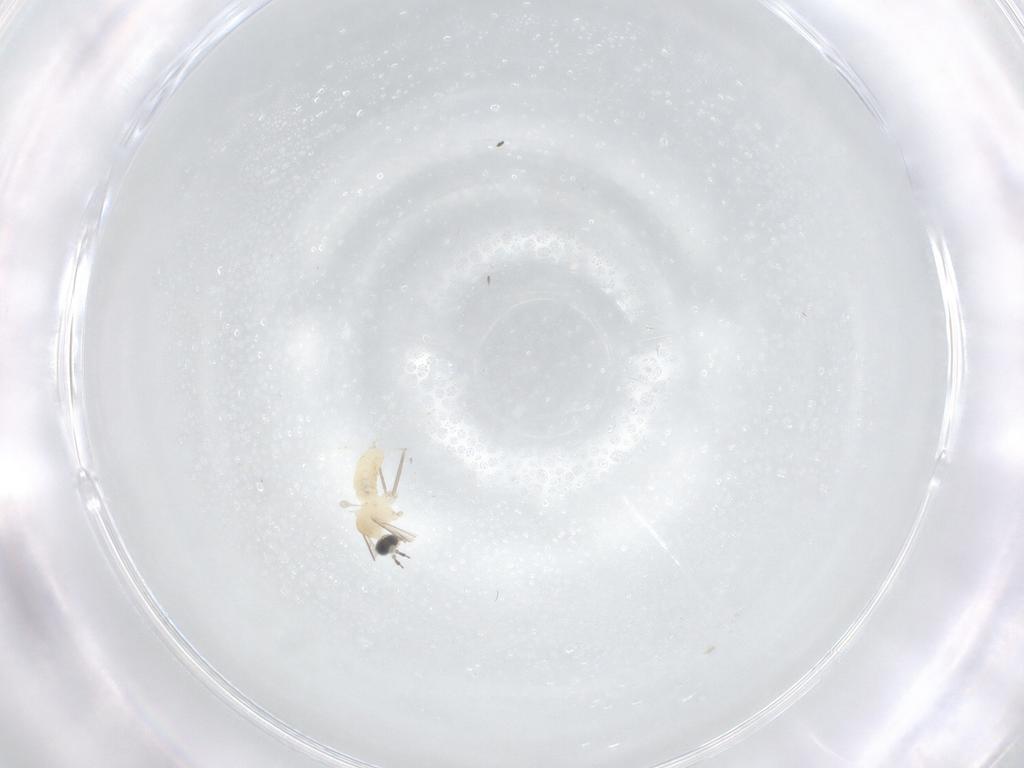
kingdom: Animalia
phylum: Arthropoda
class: Insecta
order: Diptera
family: Cecidomyiidae
